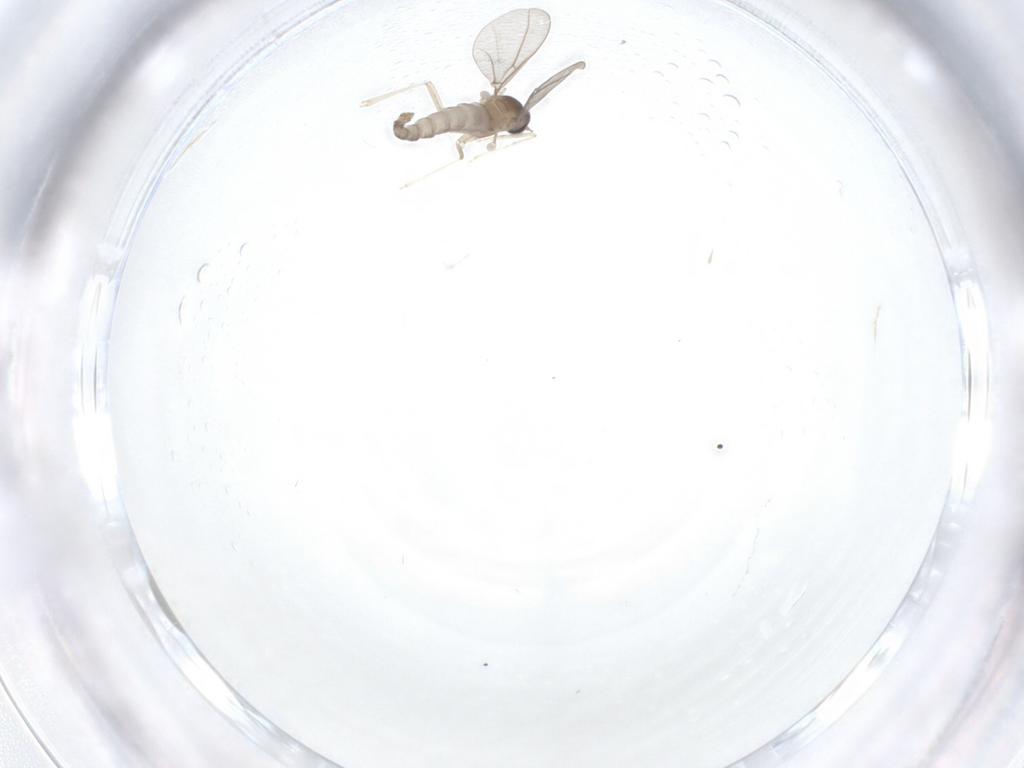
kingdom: Animalia
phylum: Arthropoda
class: Insecta
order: Diptera
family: Cecidomyiidae
